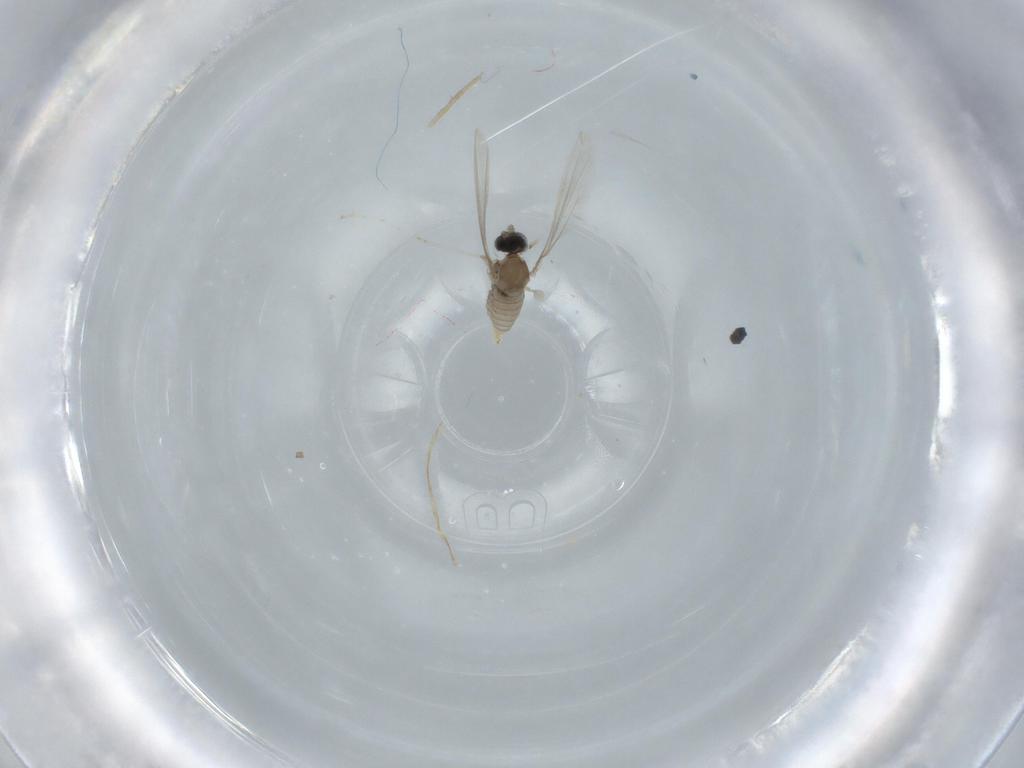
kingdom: Animalia
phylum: Arthropoda
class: Insecta
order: Diptera
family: Cecidomyiidae
